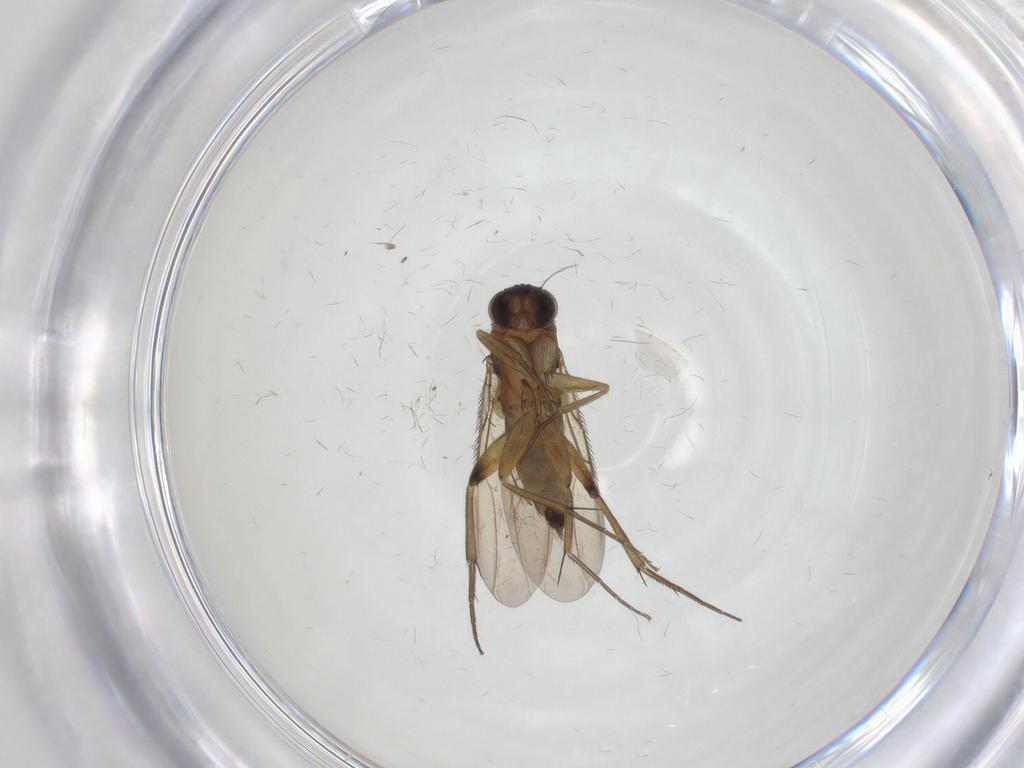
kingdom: Animalia
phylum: Arthropoda
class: Insecta
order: Diptera
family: Phoridae
